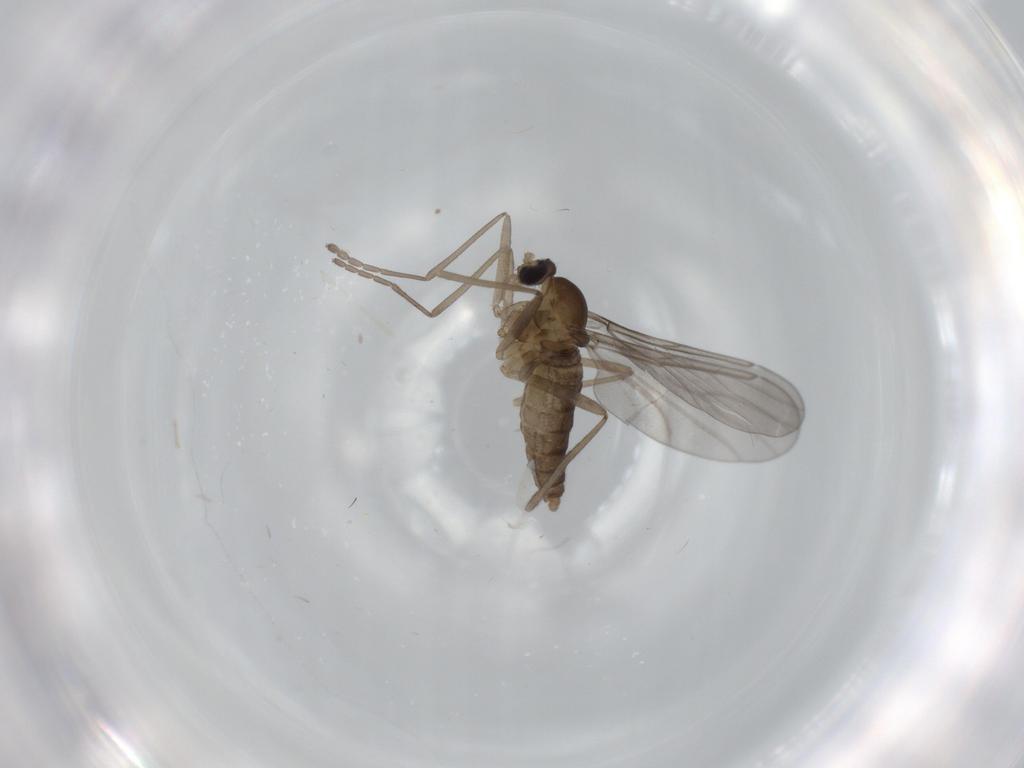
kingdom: Animalia
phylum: Arthropoda
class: Insecta
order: Diptera
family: Cecidomyiidae
